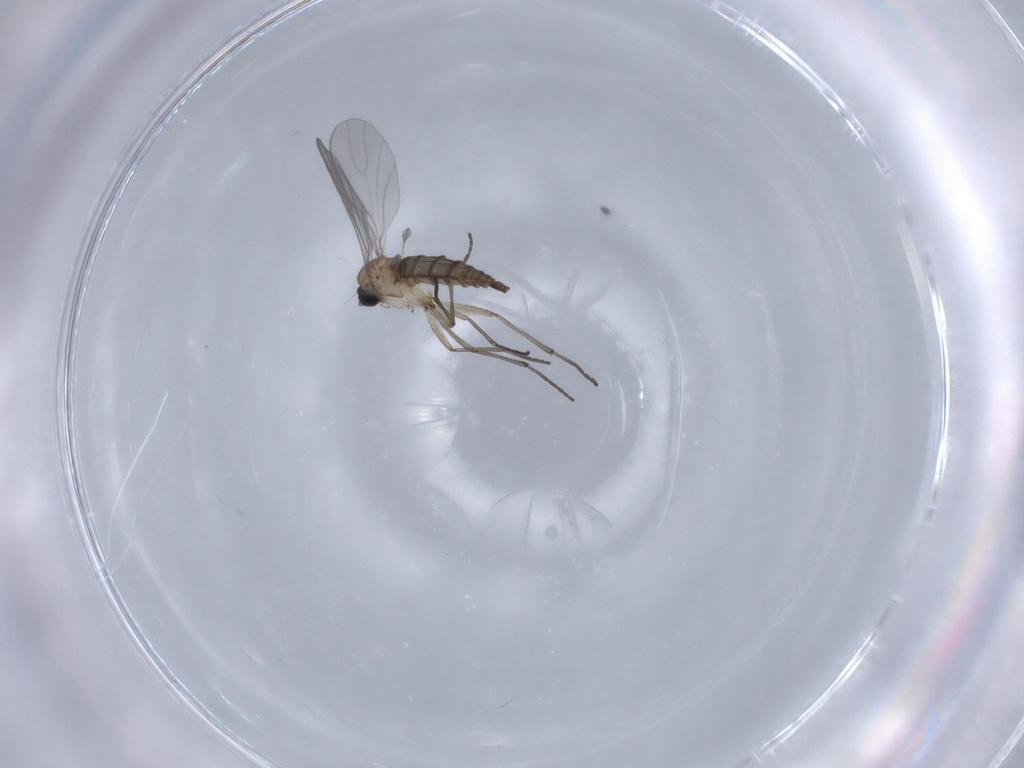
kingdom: Animalia
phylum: Arthropoda
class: Insecta
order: Diptera
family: Sciaridae
